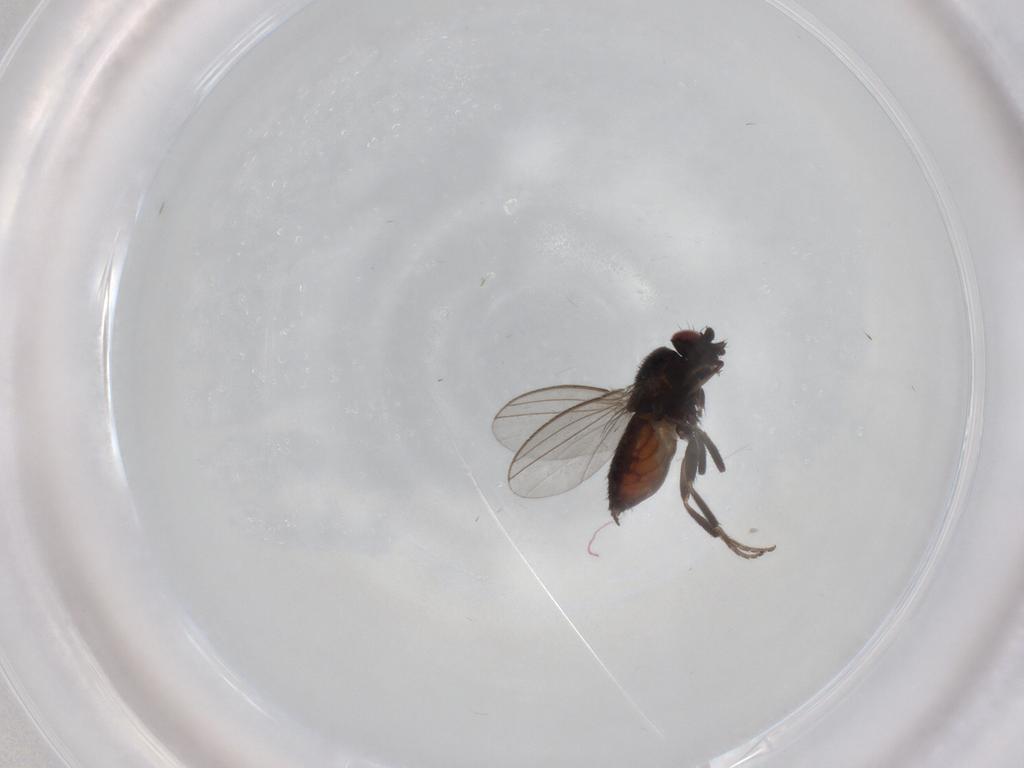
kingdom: Animalia
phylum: Arthropoda
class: Insecta
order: Diptera
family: Milichiidae
